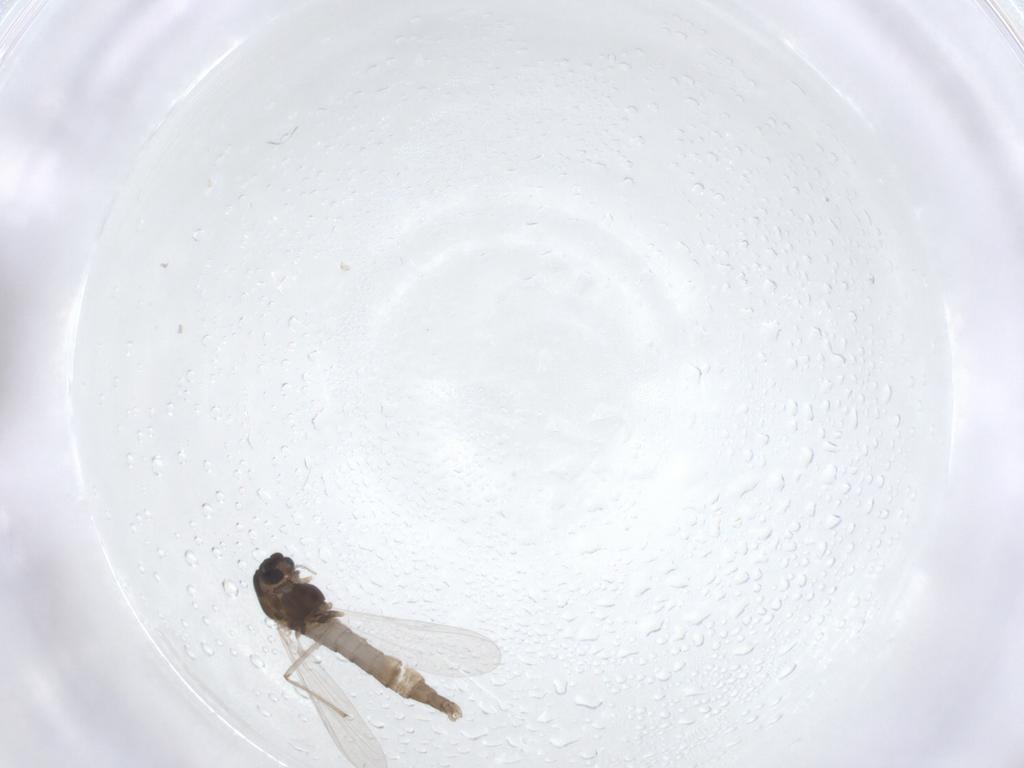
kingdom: Animalia
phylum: Arthropoda
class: Insecta
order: Diptera
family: Chironomidae
